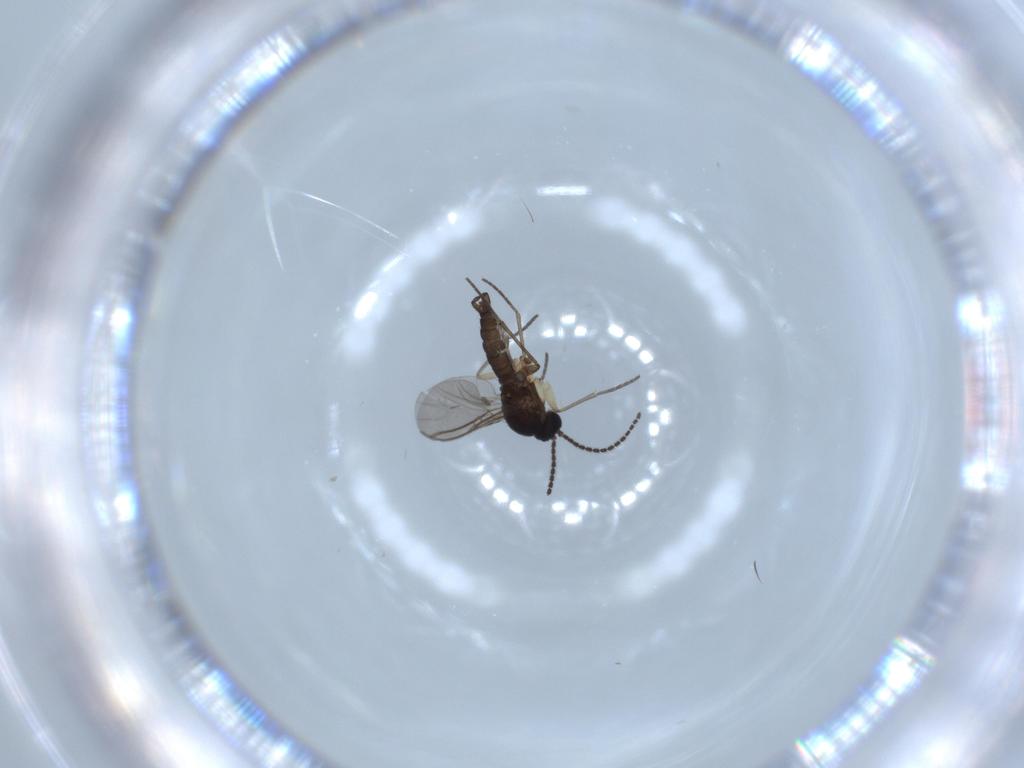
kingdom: Animalia
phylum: Arthropoda
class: Insecta
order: Diptera
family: Sciaridae
